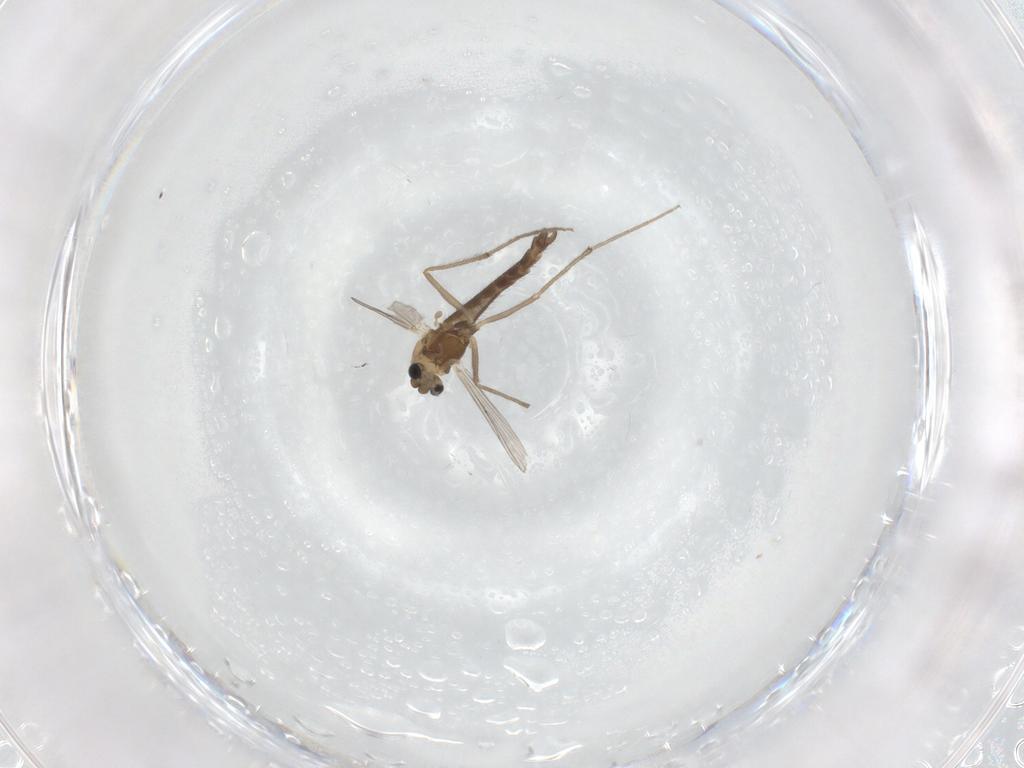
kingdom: Animalia
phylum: Arthropoda
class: Insecta
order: Diptera
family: Chironomidae
